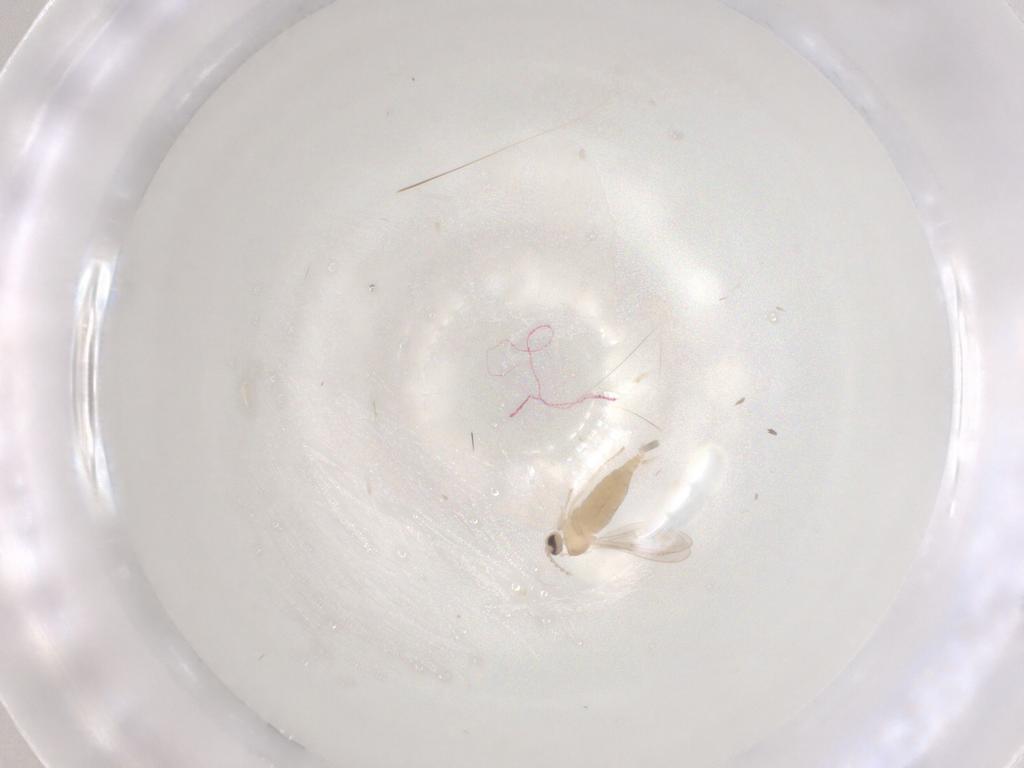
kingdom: Animalia
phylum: Arthropoda
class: Insecta
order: Diptera
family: Cecidomyiidae
